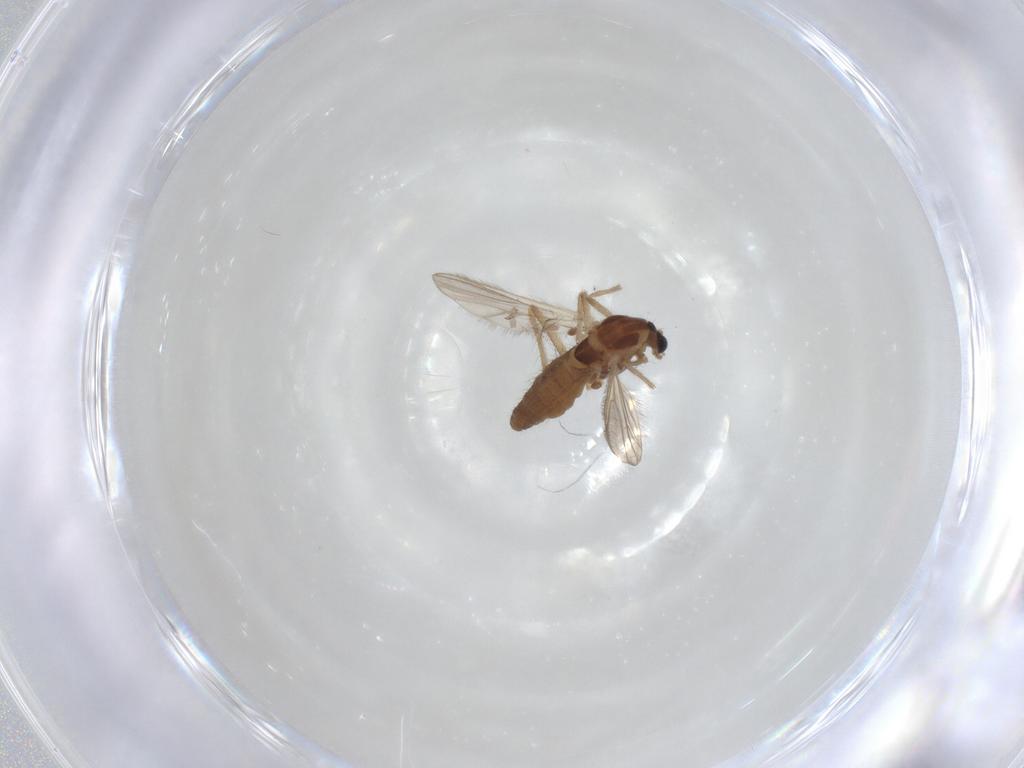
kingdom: Animalia
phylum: Arthropoda
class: Insecta
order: Diptera
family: Chironomidae
